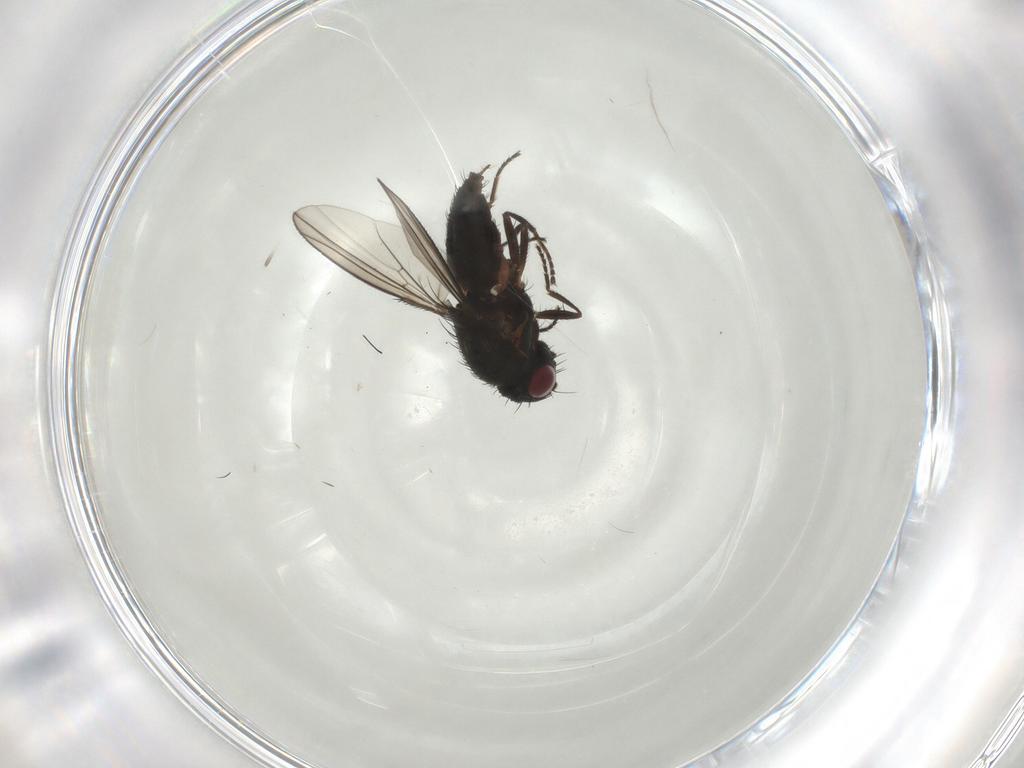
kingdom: Animalia
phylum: Arthropoda
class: Insecta
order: Diptera
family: Carnidae
